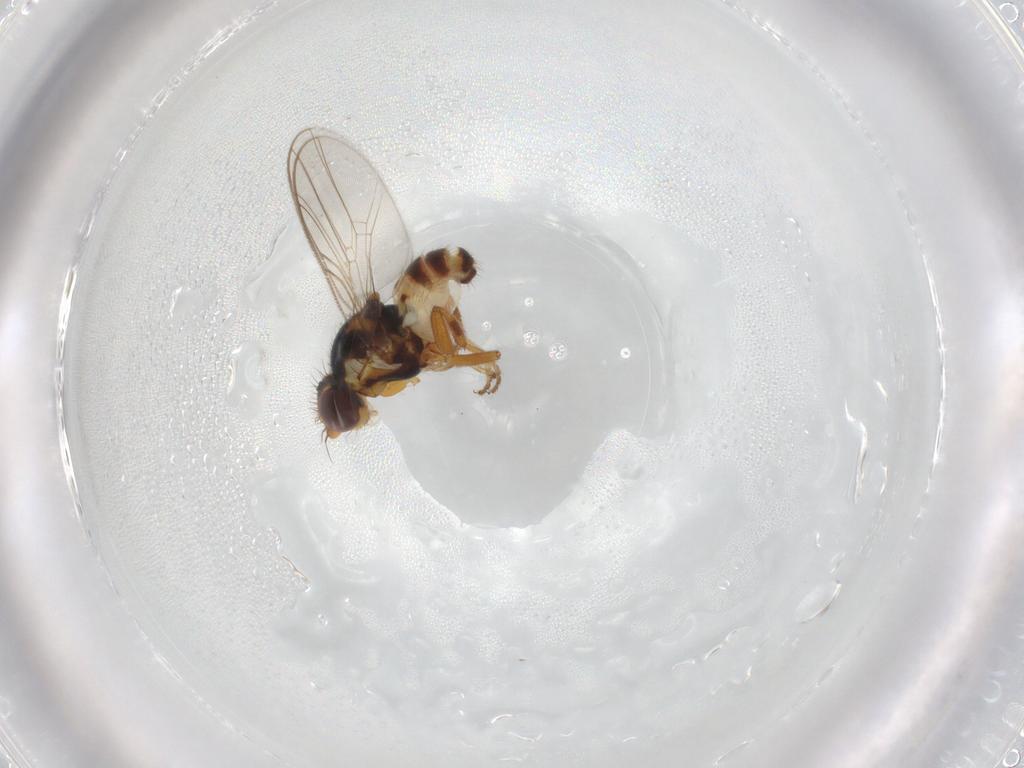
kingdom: Animalia
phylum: Arthropoda
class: Insecta
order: Diptera
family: Chloropidae
